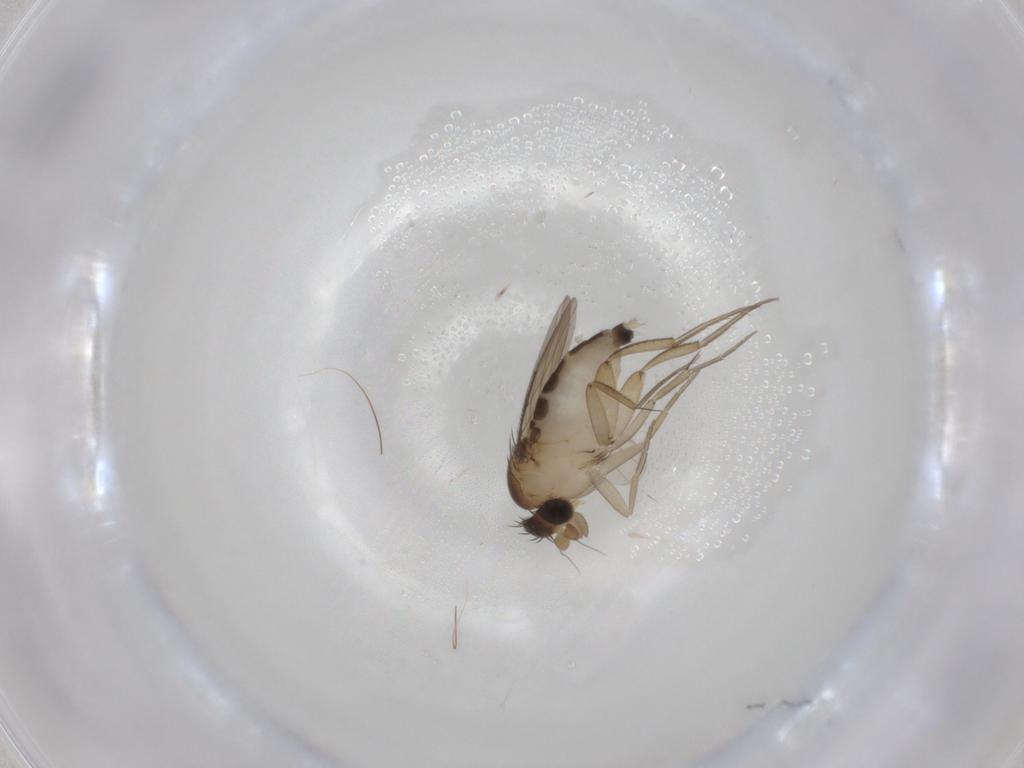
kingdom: Animalia
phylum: Arthropoda
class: Insecta
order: Diptera
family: Phoridae
